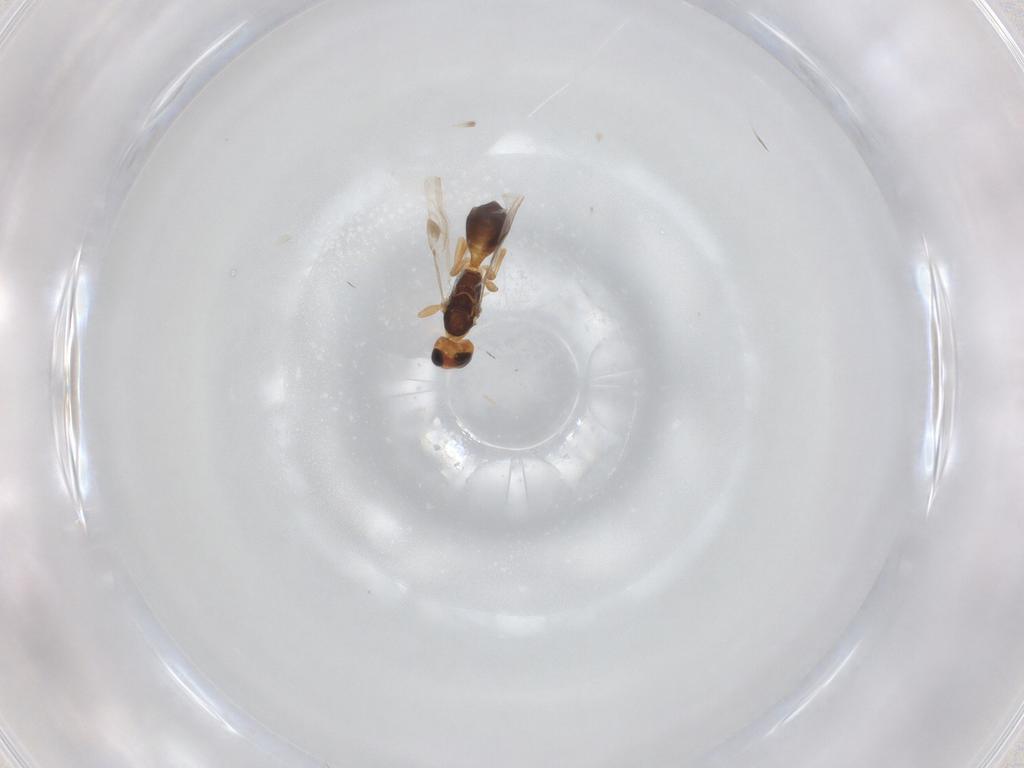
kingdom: Animalia
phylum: Arthropoda
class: Insecta
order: Hymenoptera
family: Braconidae
